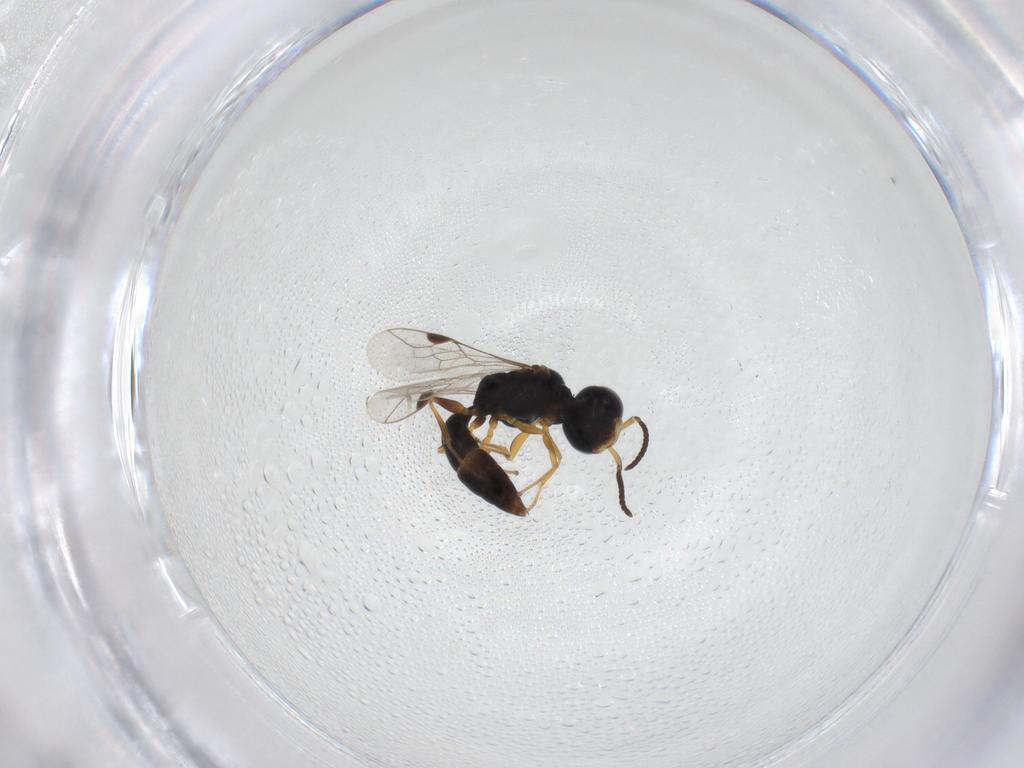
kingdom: Animalia
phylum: Arthropoda
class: Insecta
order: Hymenoptera
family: Crabronidae
